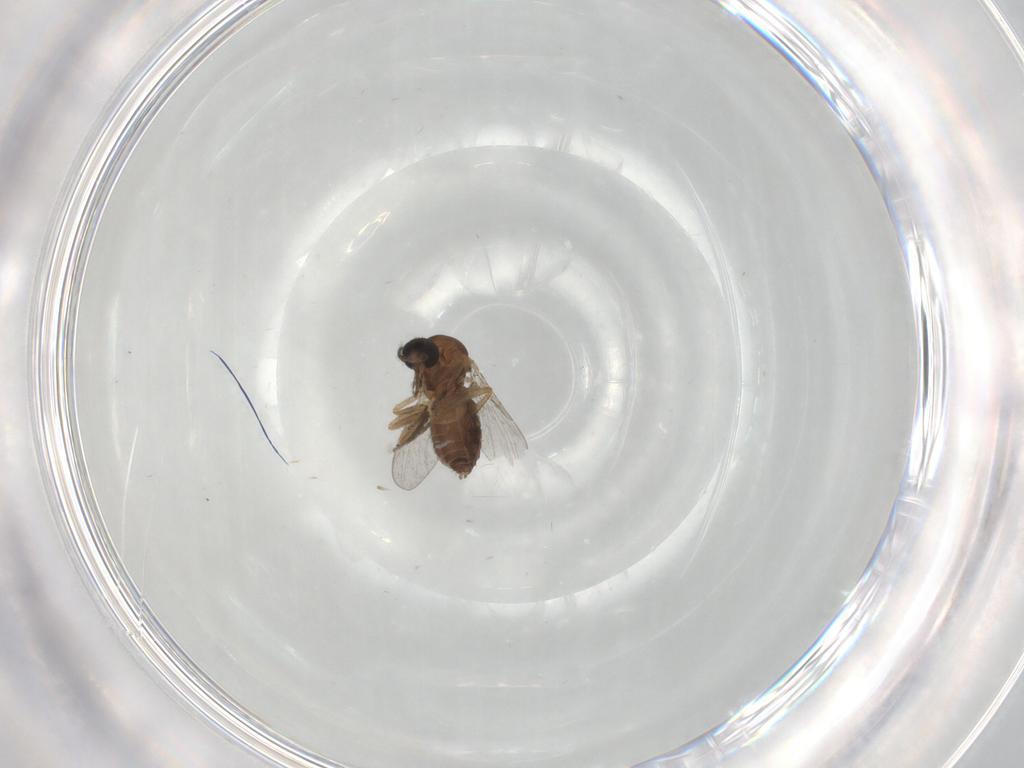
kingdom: Animalia
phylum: Arthropoda
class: Insecta
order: Diptera
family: Ceratopogonidae
